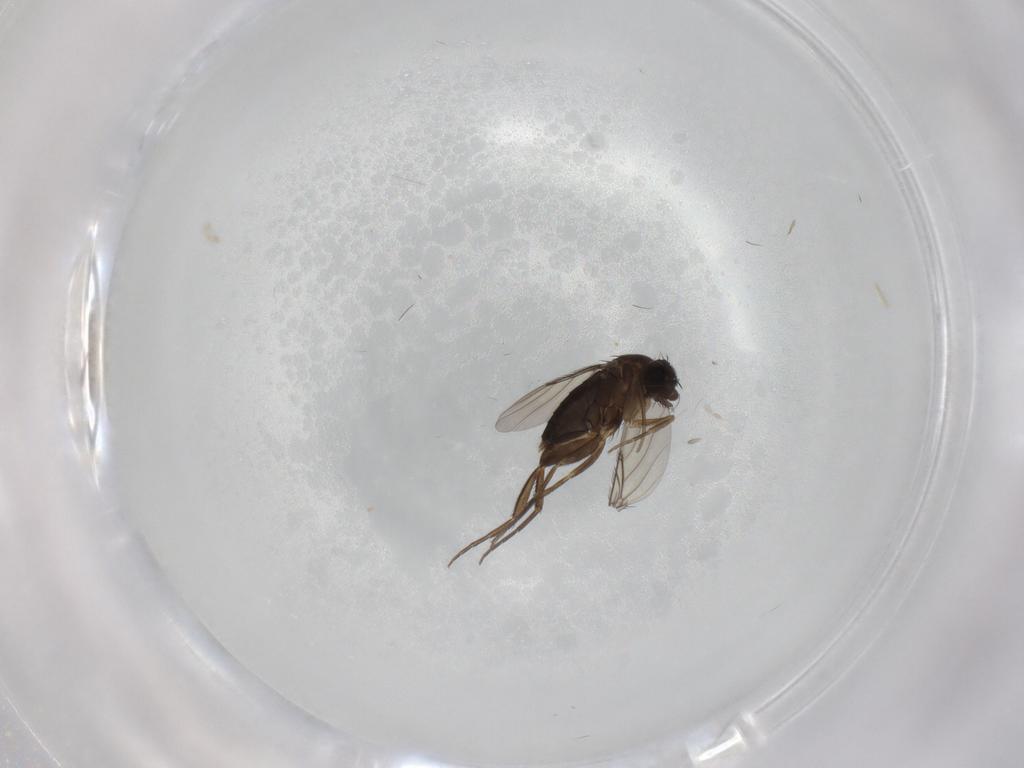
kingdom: Animalia
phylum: Arthropoda
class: Insecta
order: Diptera
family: Phoridae
